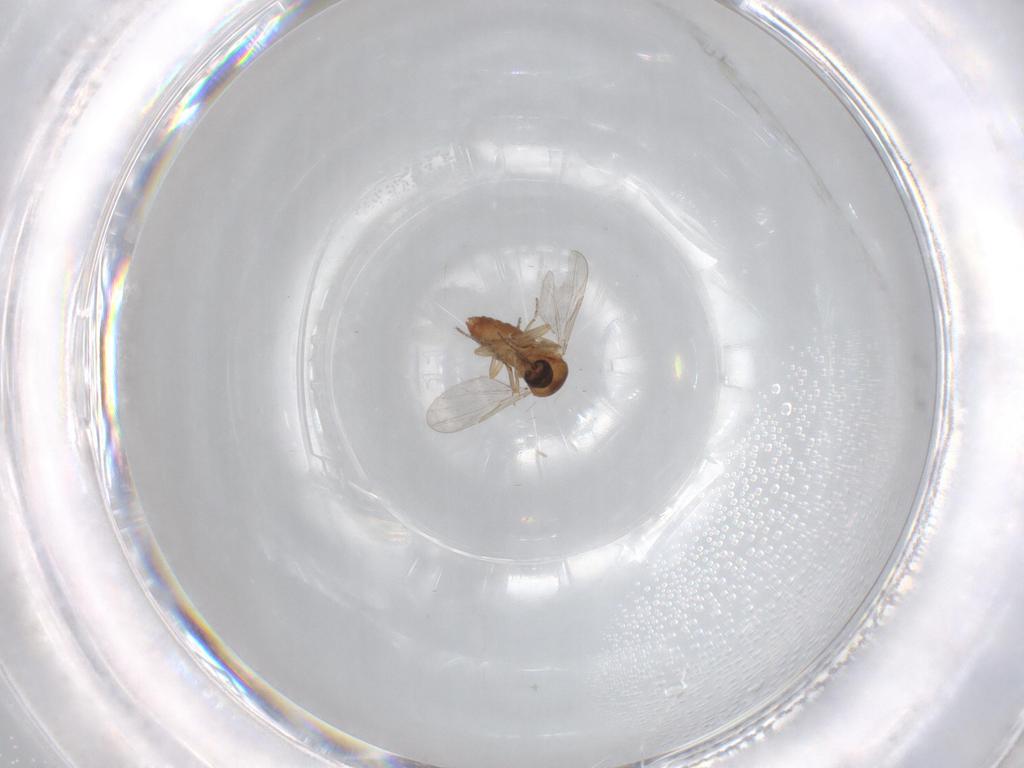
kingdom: Animalia
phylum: Arthropoda
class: Insecta
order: Diptera
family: Ceratopogonidae
